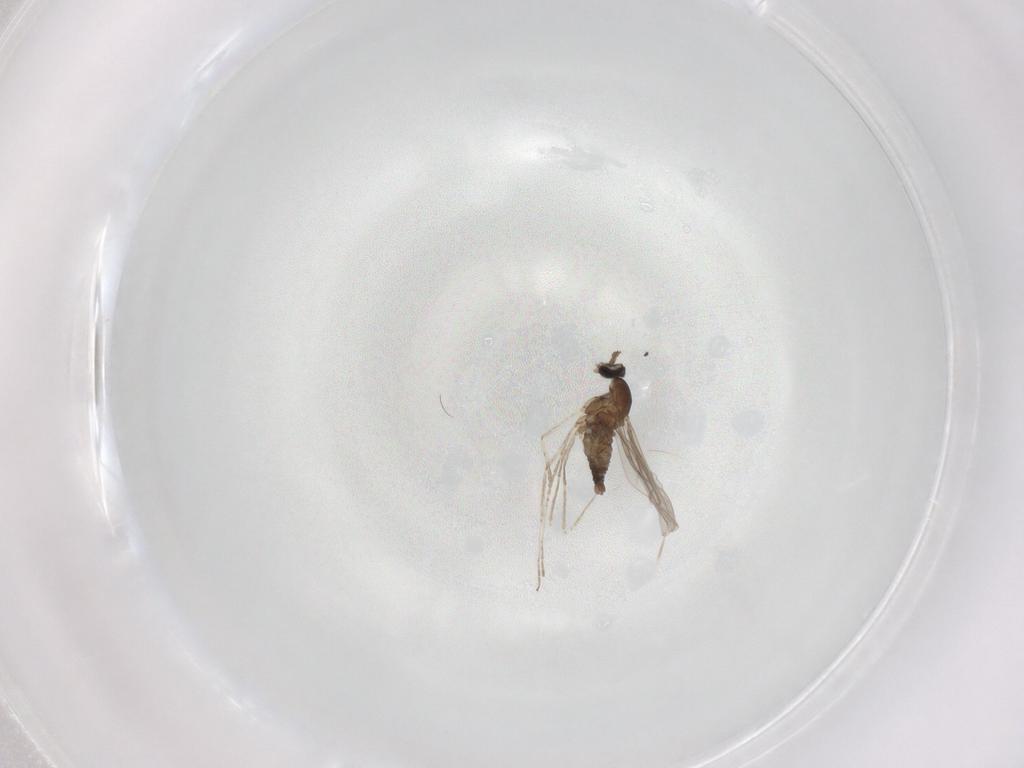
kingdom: Animalia
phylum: Arthropoda
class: Insecta
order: Diptera
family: Cecidomyiidae
